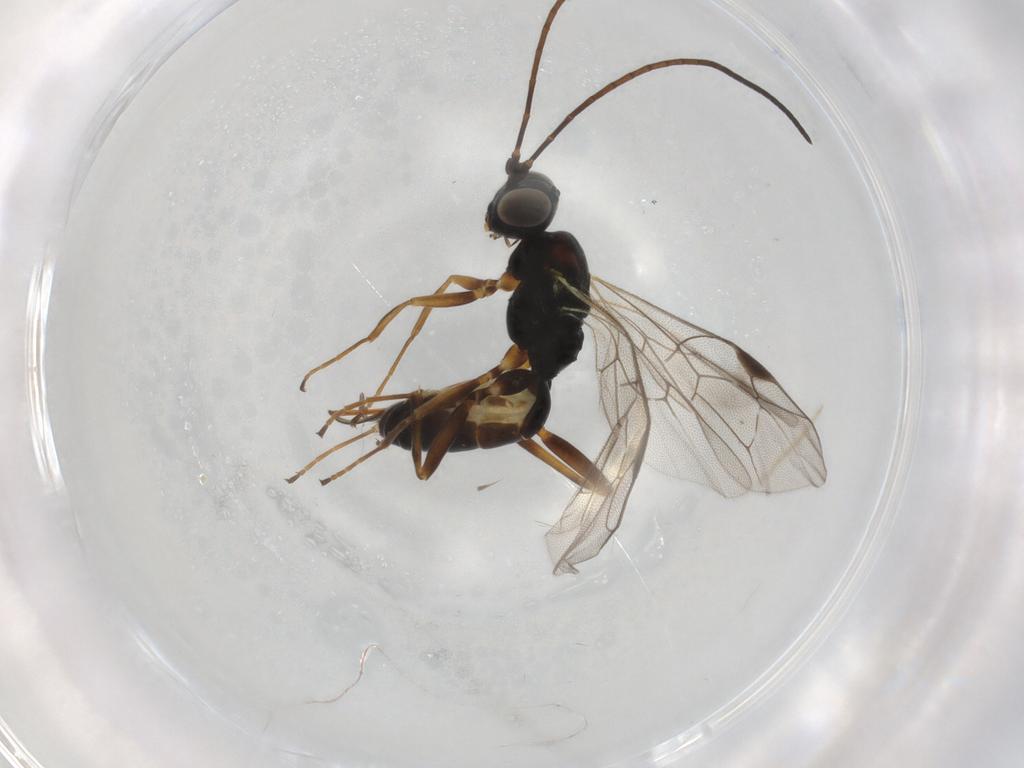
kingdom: Animalia
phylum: Arthropoda
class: Insecta
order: Hymenoptera
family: Ichneumonidae
